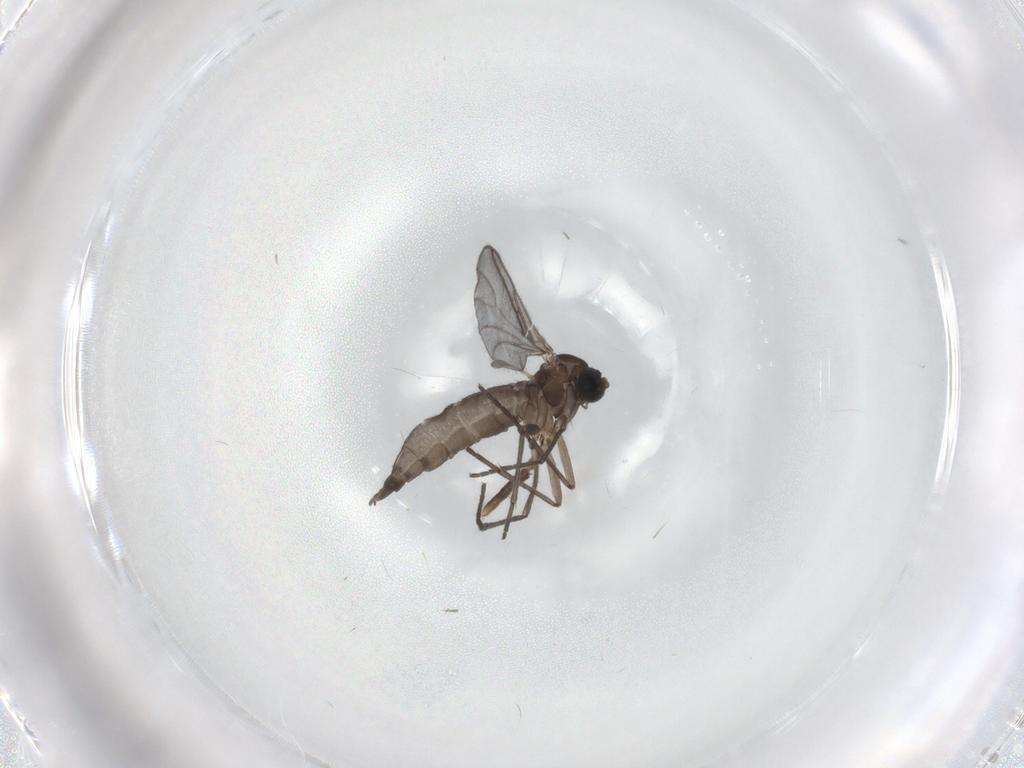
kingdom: Animalia
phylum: Arthropoda
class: Insecta
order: Diptera
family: Sciaridae
